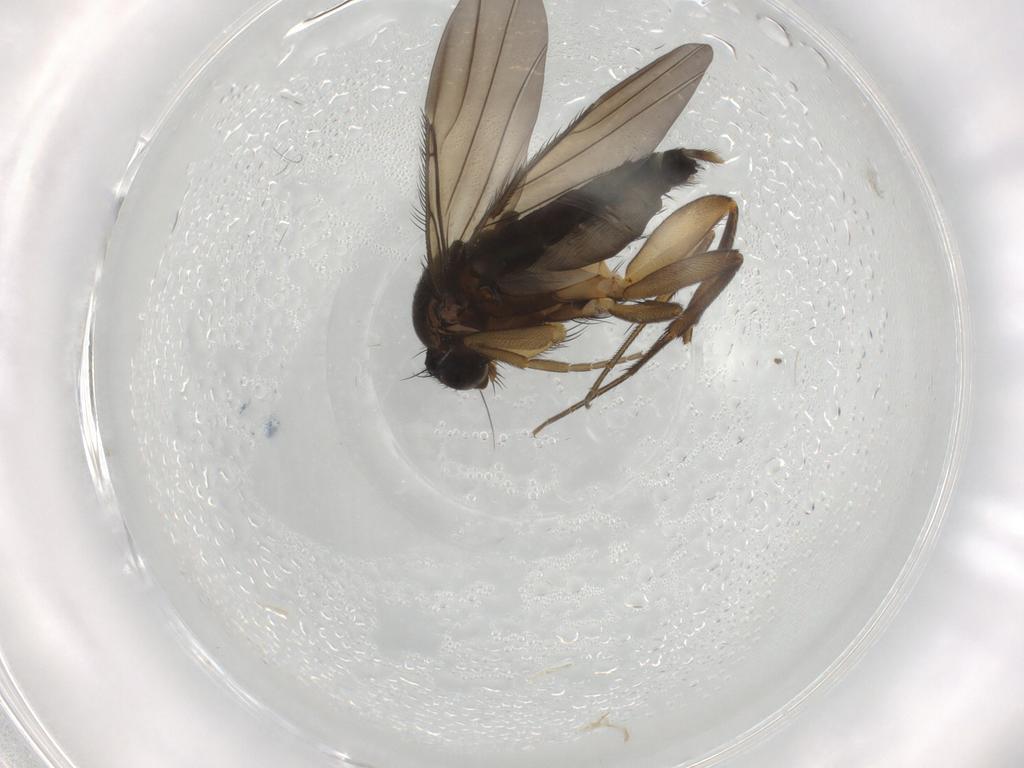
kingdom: Animalia
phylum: Arthropoda
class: Insecta
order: Diptera
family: Phoridae
